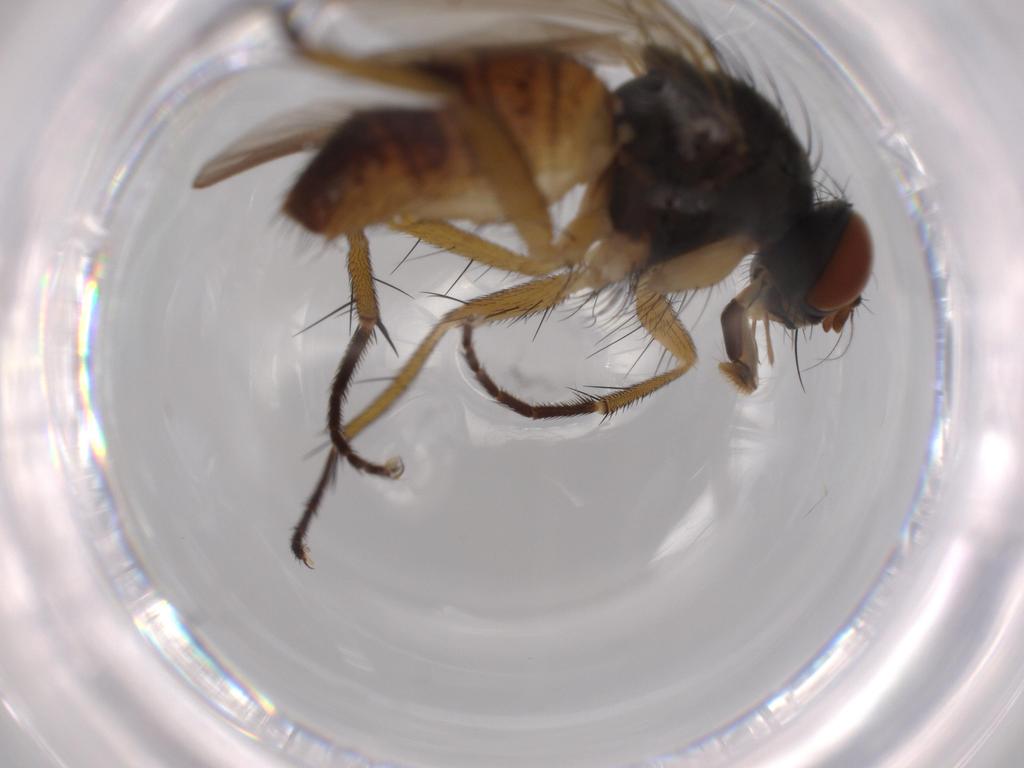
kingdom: Animalia
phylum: Arthropoda
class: Insecta
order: Diptera
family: Muscidae
